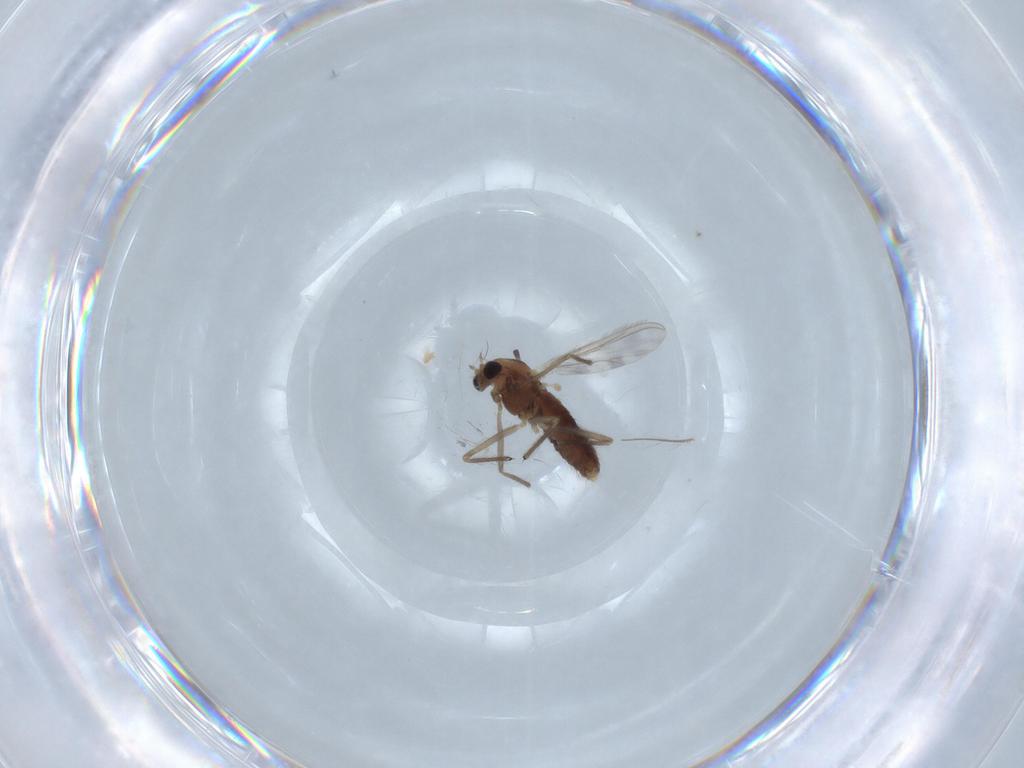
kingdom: Animalia
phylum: Arthropoda
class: Insecta
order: Diptera
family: Chironomidae
